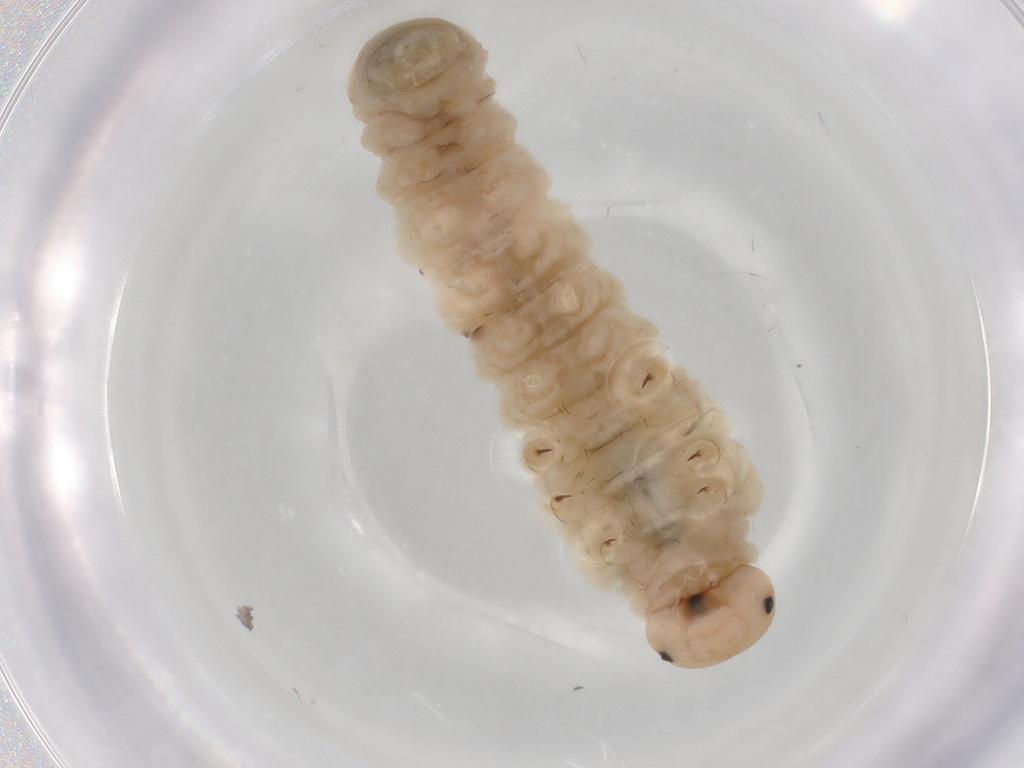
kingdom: Animalia
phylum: Arthropoda
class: Insecta
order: Hymenoptera
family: Tenthredinidae
